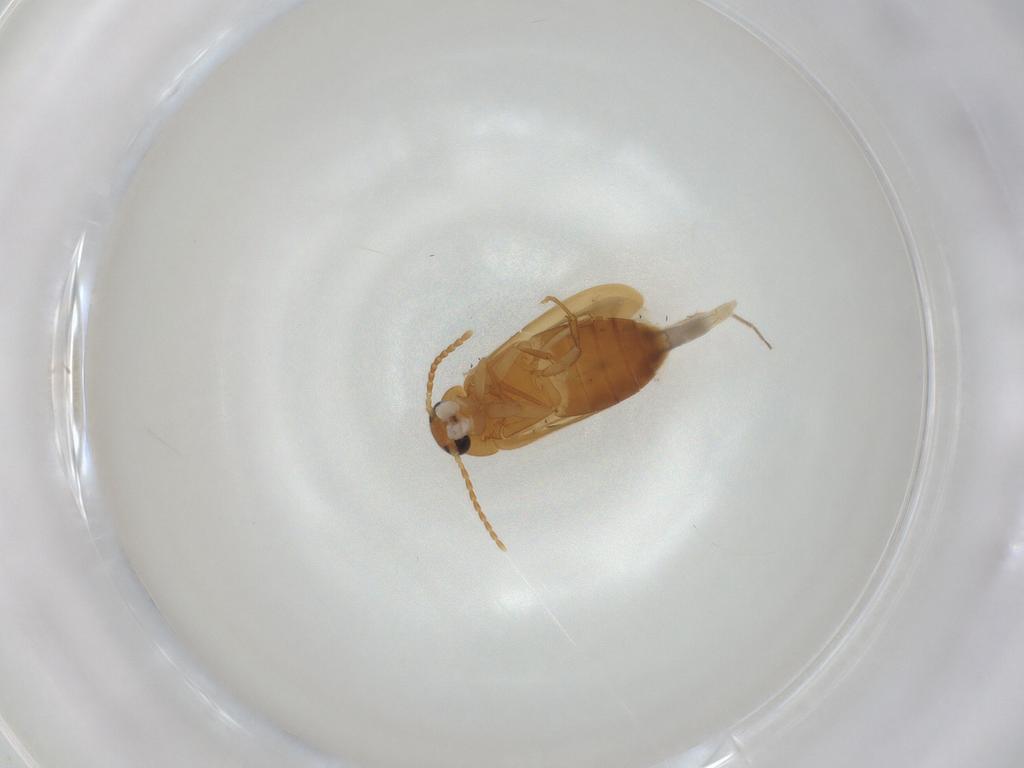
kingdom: Animalia
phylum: Arthropoda
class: Insecta
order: Coleoptera
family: Scraptiidae
